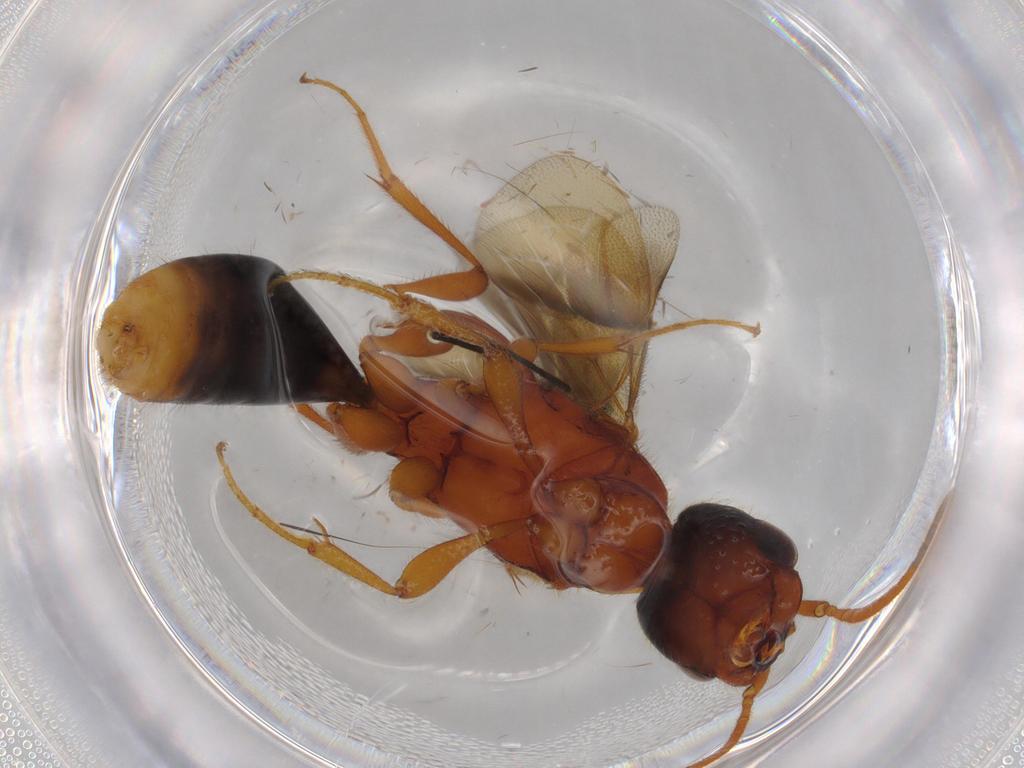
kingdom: Animalia
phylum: Arthropoda
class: Insecta
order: Hymenoptera
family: Bethylidae
